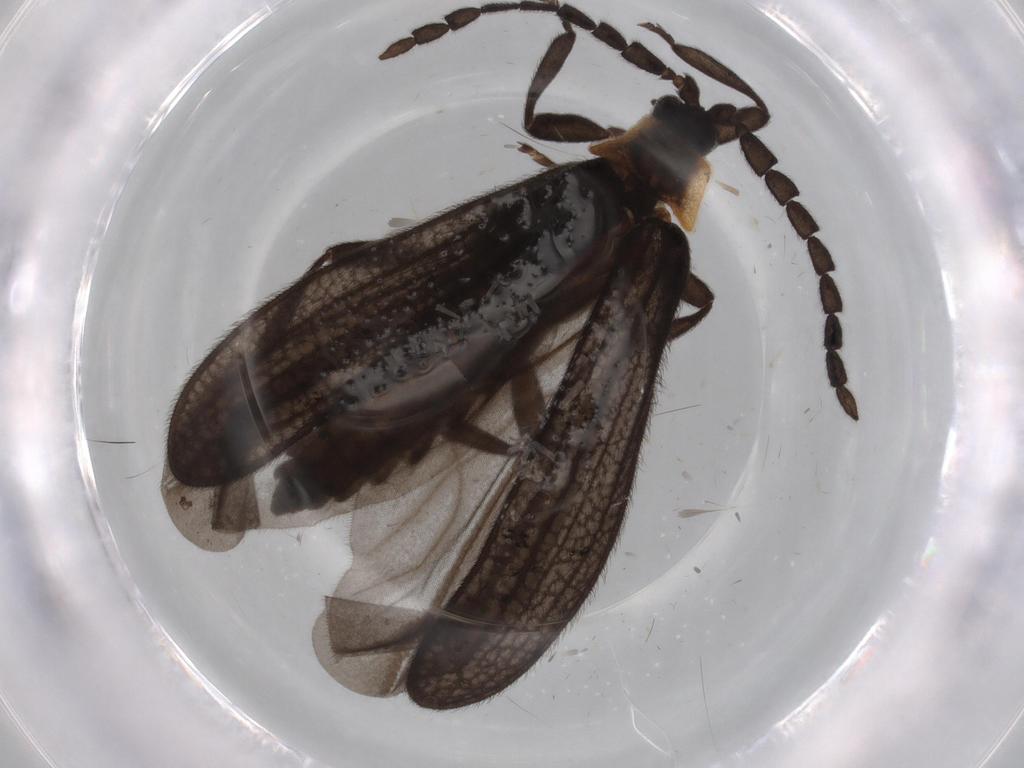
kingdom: Animalia
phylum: Arthropoda
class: Insecta
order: Coleoptera
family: Lycidae
